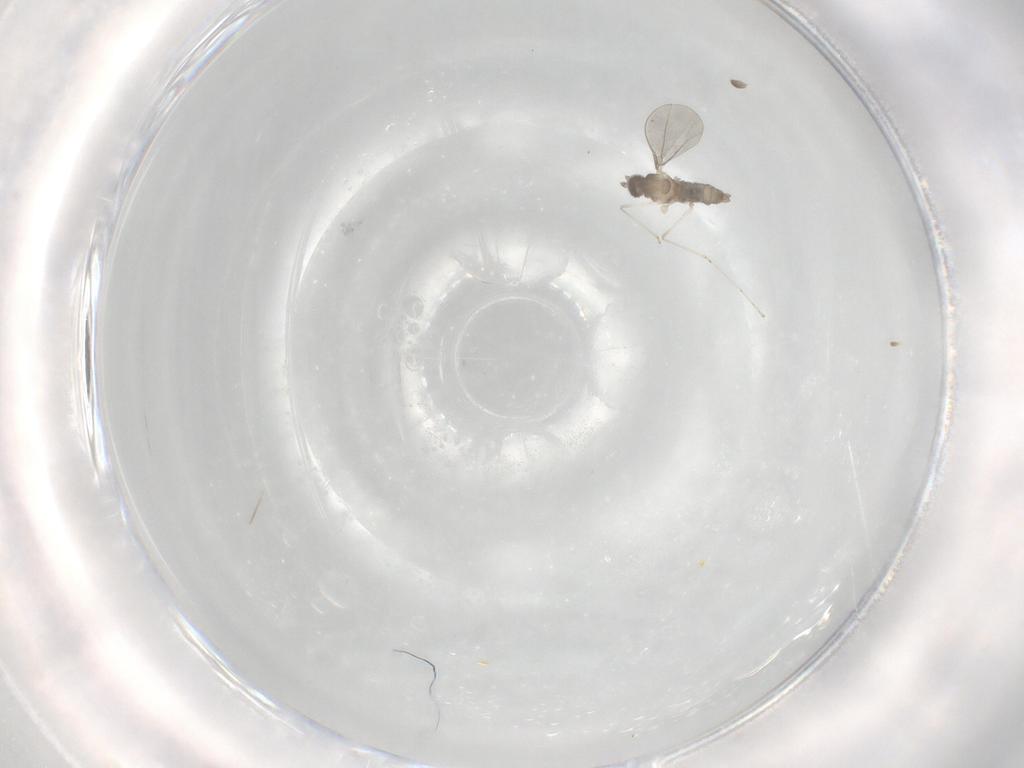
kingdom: Animalia
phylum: Arthropoda
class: Insecta
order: Diptera
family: Cecidomyiidae
